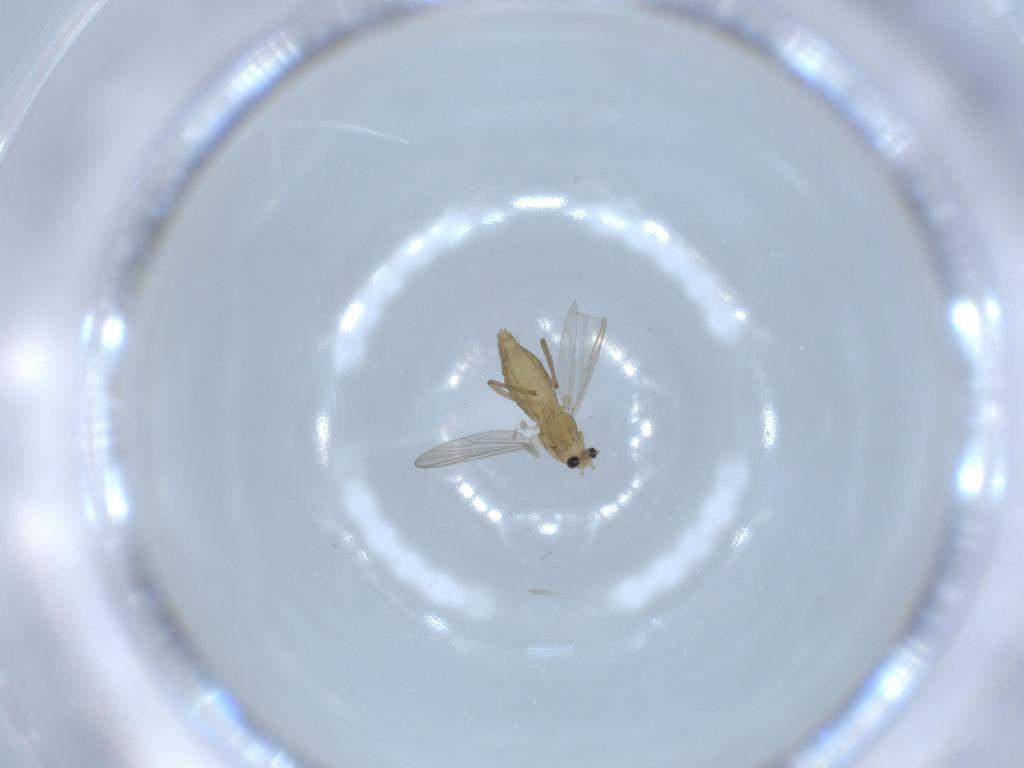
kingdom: Animalia
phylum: Arthropoda
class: Insecta
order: Diptera
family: Chironomidae
